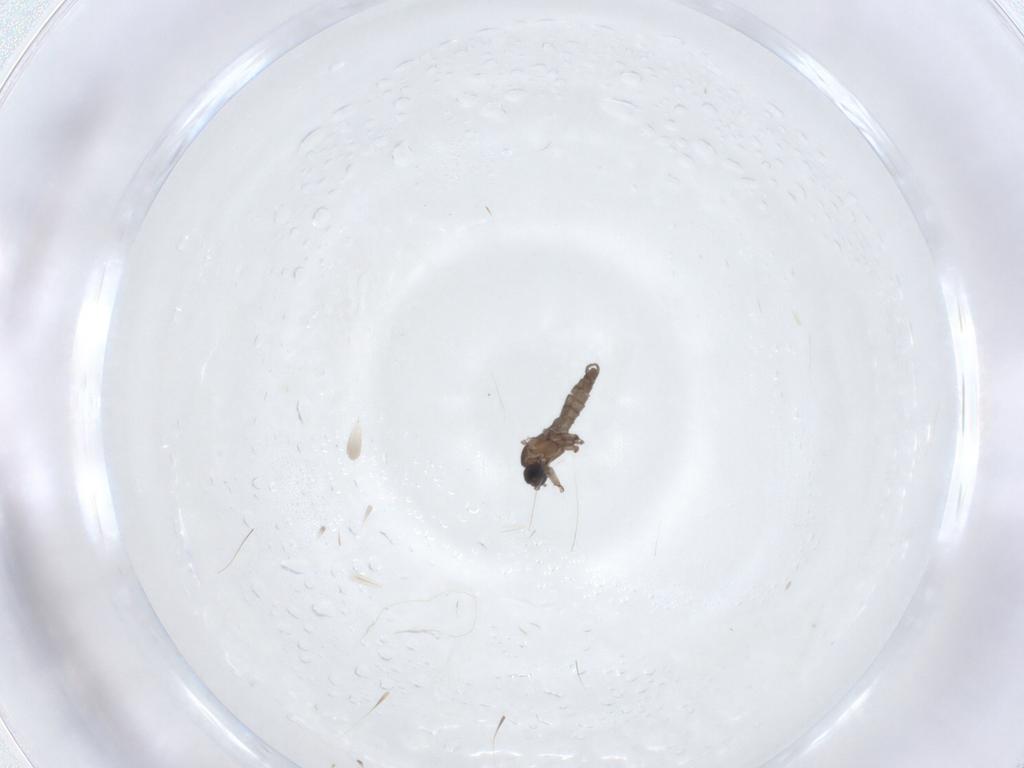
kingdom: Animalia
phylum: Arthropoda
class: Insecta
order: Diptera
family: Sciaridae
